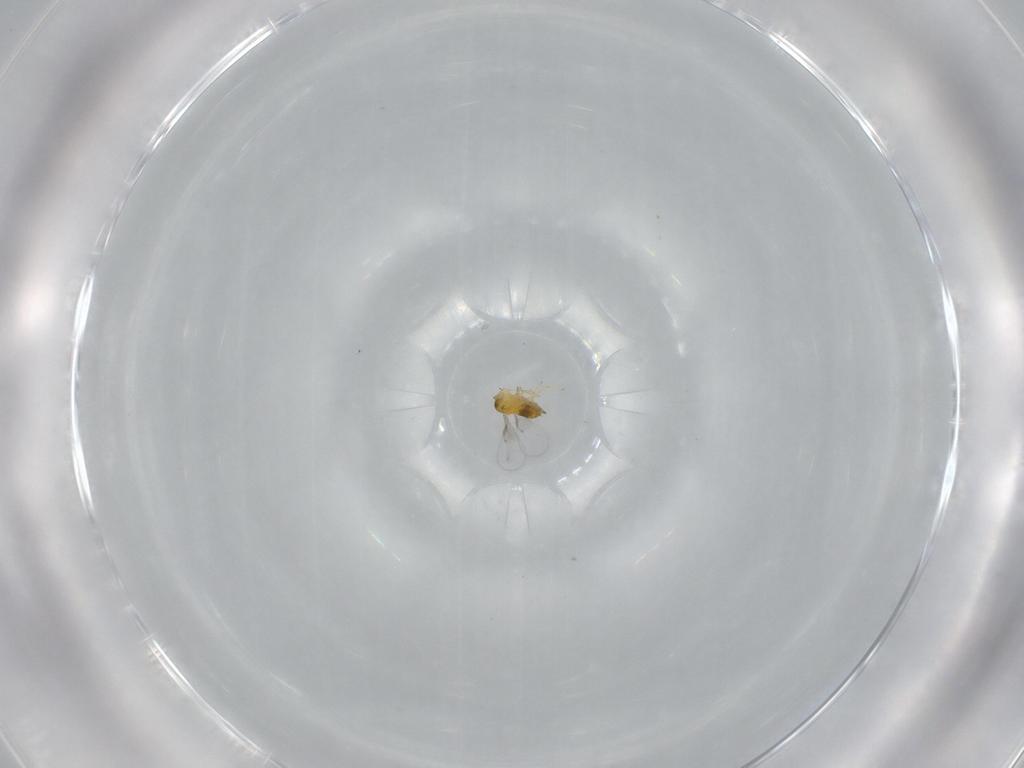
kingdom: Animalia
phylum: Arthropoda
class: Insecta
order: Hymenoptera
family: Trichogrammatidae
